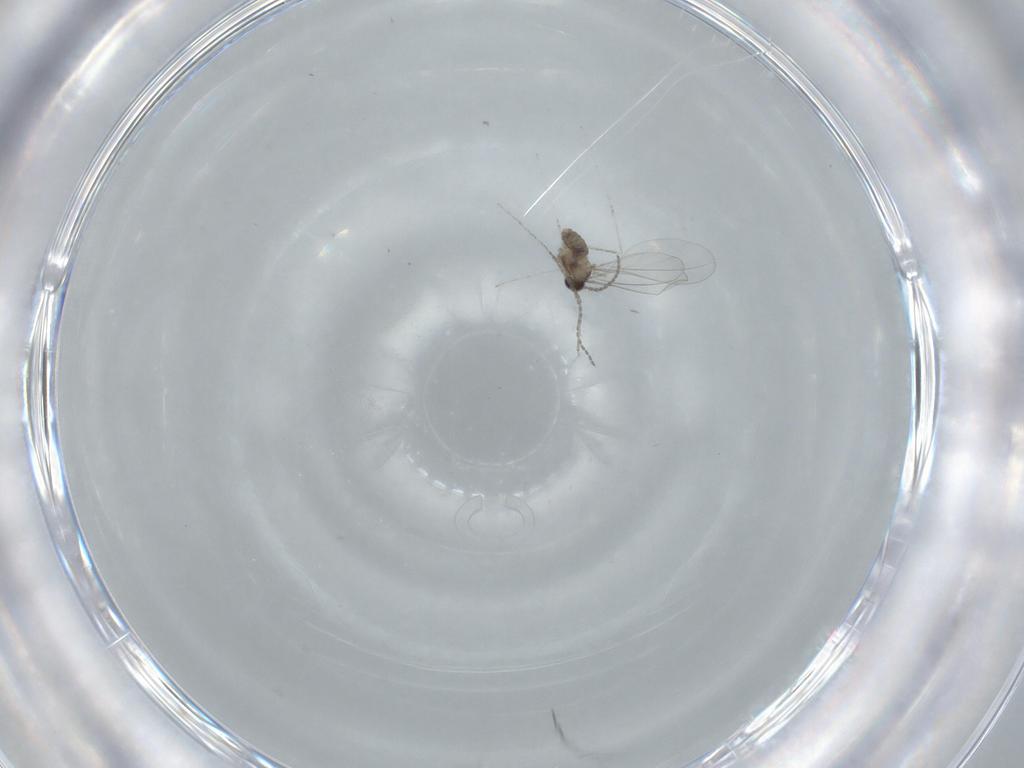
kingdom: Animalia
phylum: Arthropoda
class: Insecta
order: Diptera
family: Cecidomyiidae
